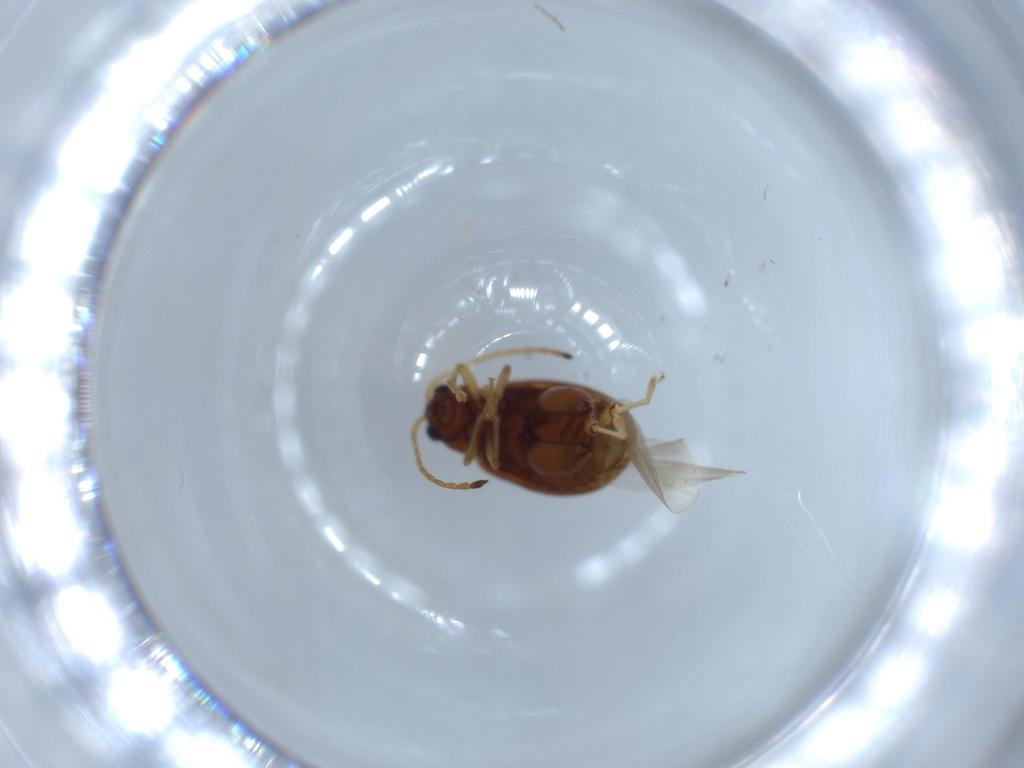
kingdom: Animalia
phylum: Arthropoda
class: Insecta
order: Coleoptera
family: Chrysomelidae
